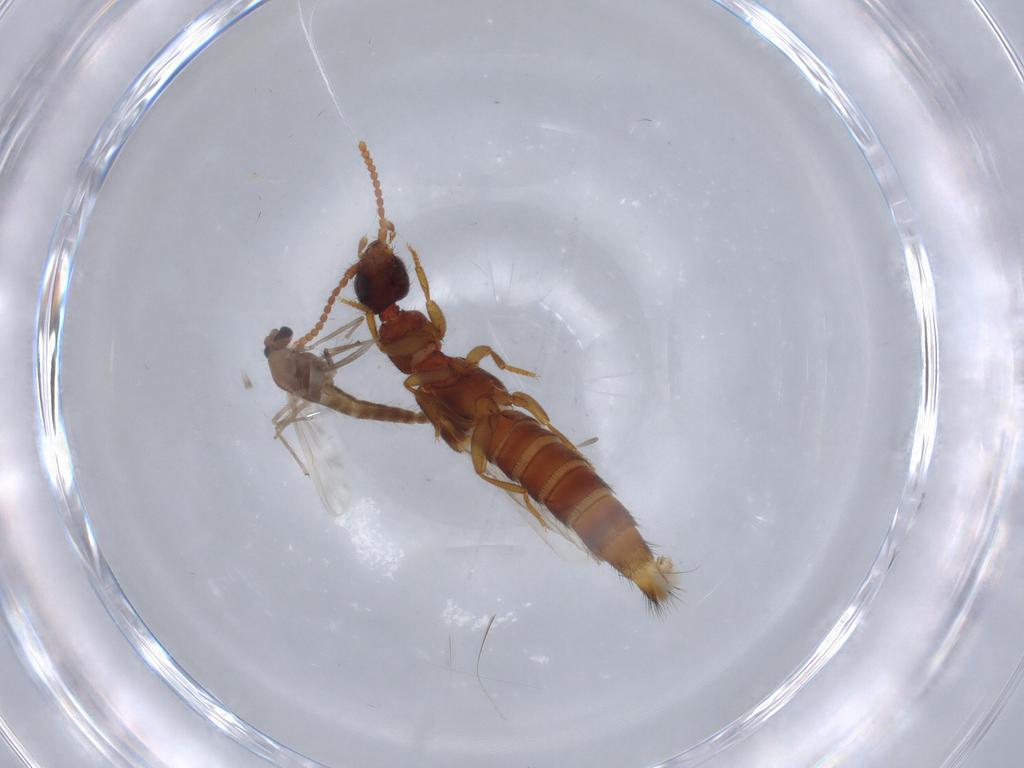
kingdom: Animalia
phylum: Arthropoda
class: Insecta
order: Diptera
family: Chironomidae
